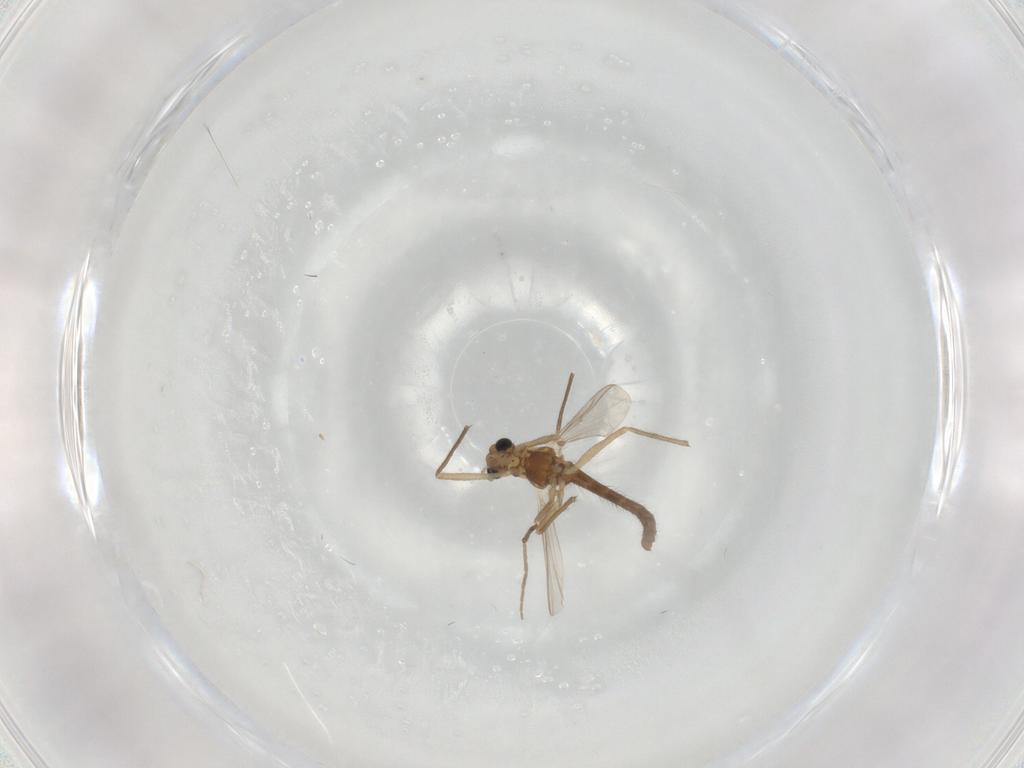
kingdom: Animalia
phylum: Arthropoda
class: Insecta
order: Diptera
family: Chironomidae
